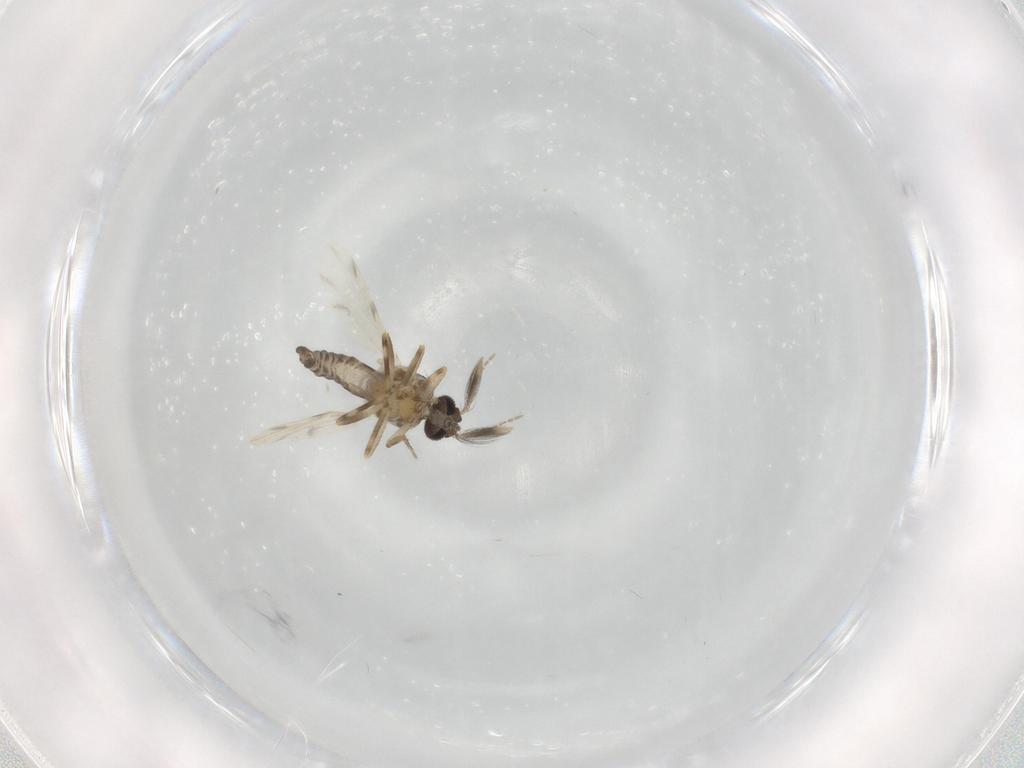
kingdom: Animalia
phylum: Arthropoda
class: Insecta
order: Diptera
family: Ceratopogonidae
